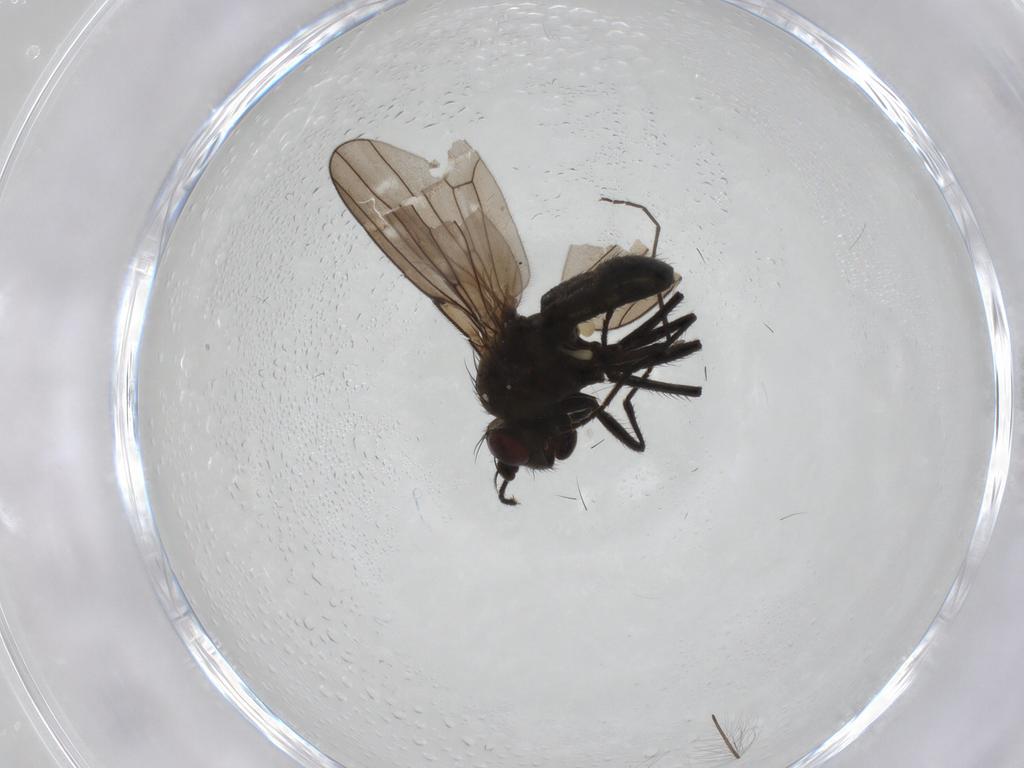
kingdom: Animalia
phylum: Arthropoda
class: Insecta
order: Diptera
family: Ephydridae
